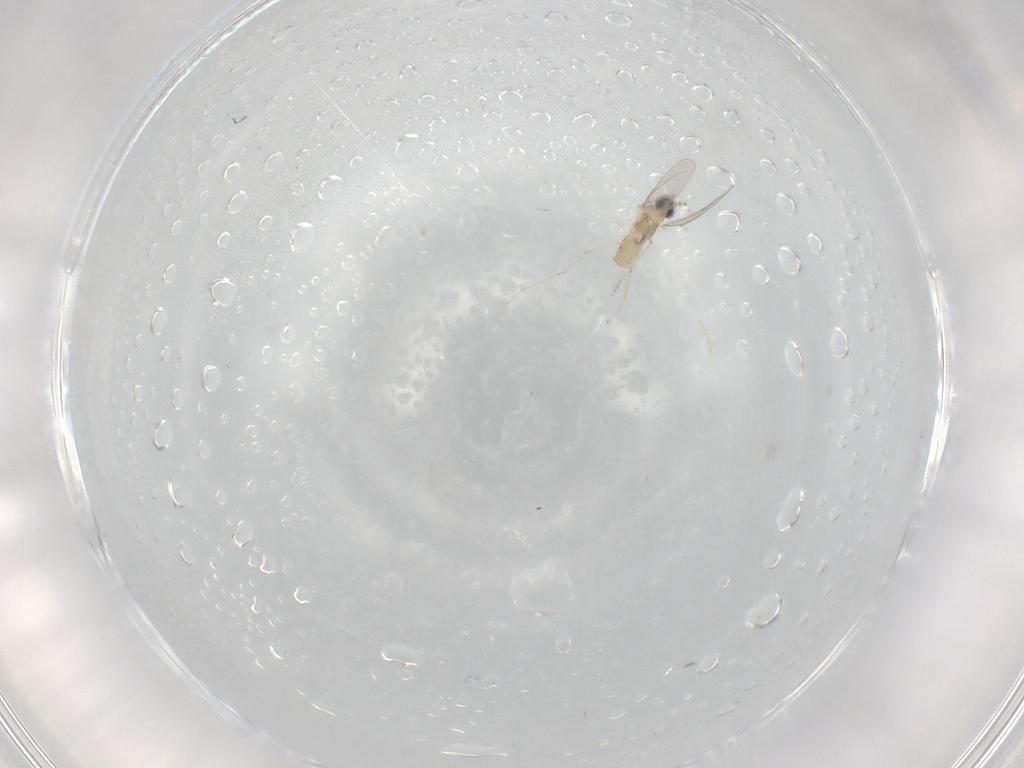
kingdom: Animalia
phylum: Arthropoda
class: Insecta
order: Diptera
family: Cecidomyiidae
